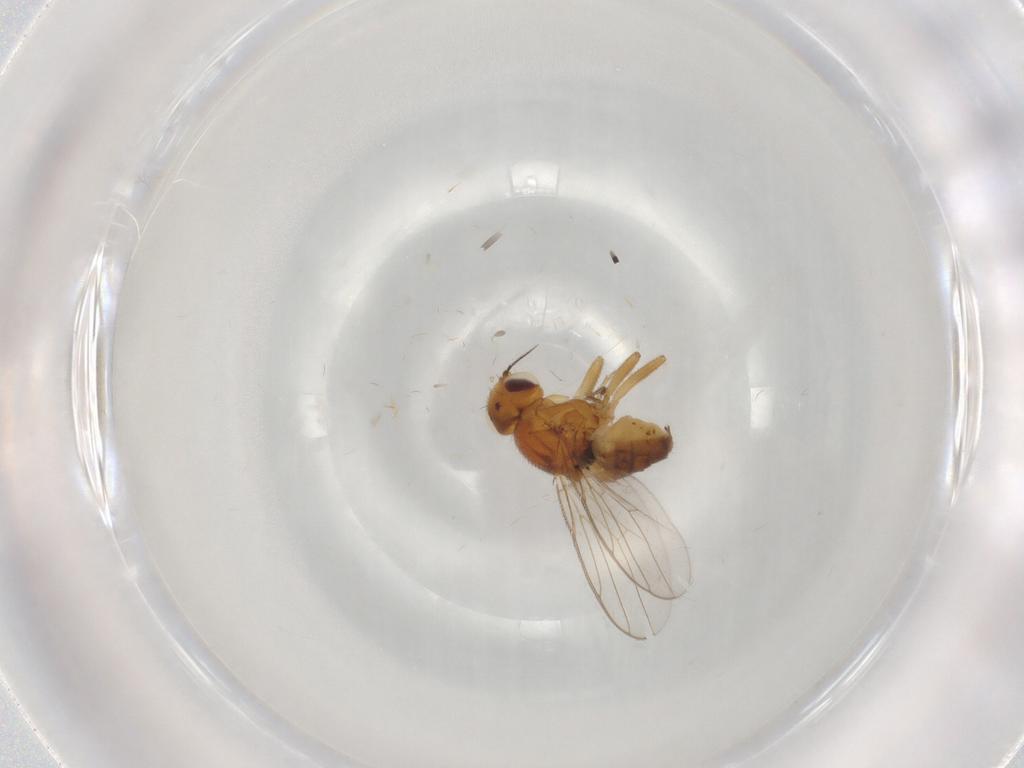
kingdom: Animalia
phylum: Arthropoda
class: Insecta
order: Diptera
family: Chloropidae
